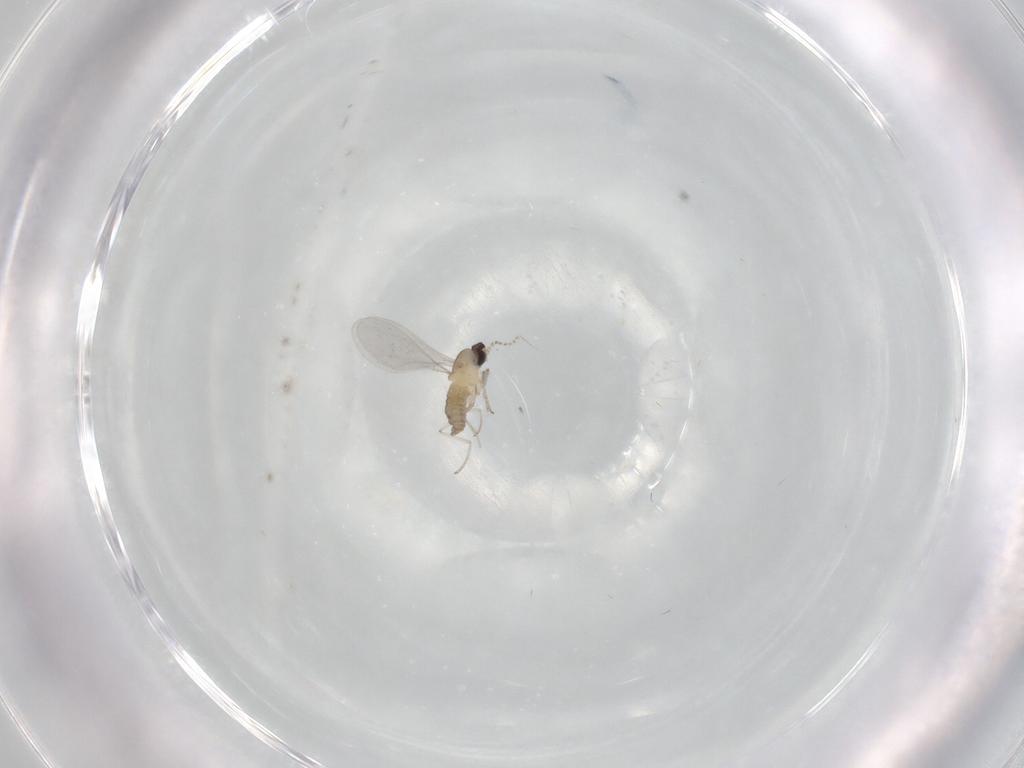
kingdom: Animalia
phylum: Arthropoda
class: Insecta
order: Diptera
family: Cecidomyiidae
